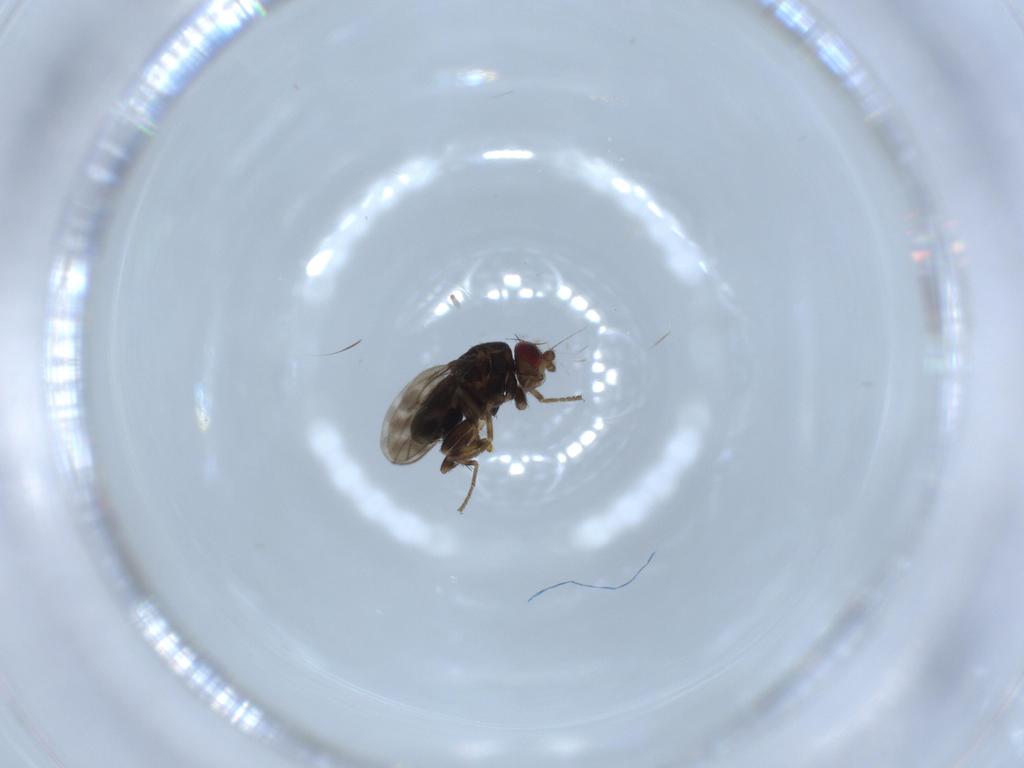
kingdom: Animalia
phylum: Arthropoda
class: Insecta
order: Diptera
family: Sphaeroceridae
